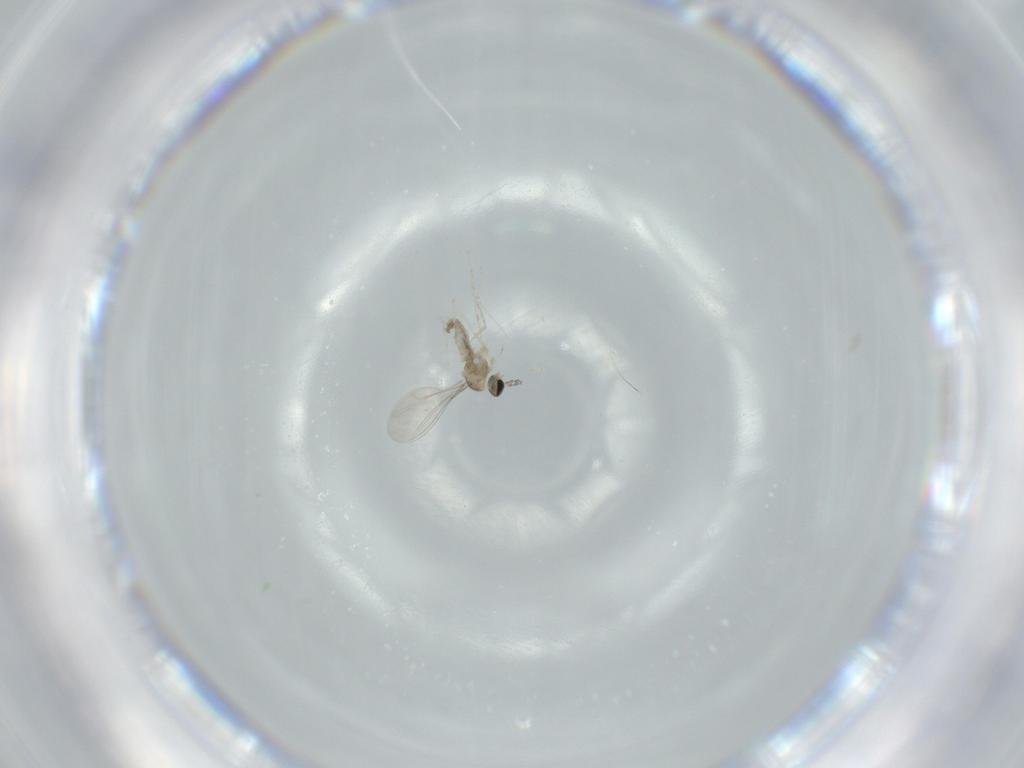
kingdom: Animalia
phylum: Arthropoda
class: Insecta
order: Diptera
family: Cecidomyiidae
